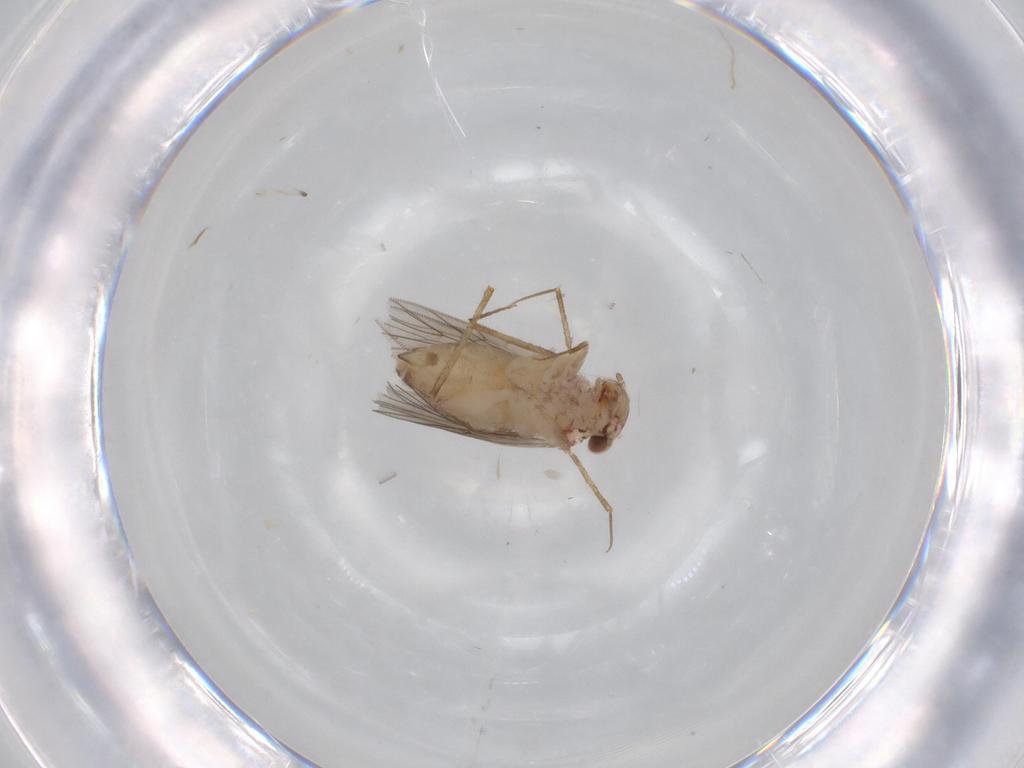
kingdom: Animalia
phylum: Arthropoda
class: Insecta
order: Psocodea
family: Lepidopsocidae
